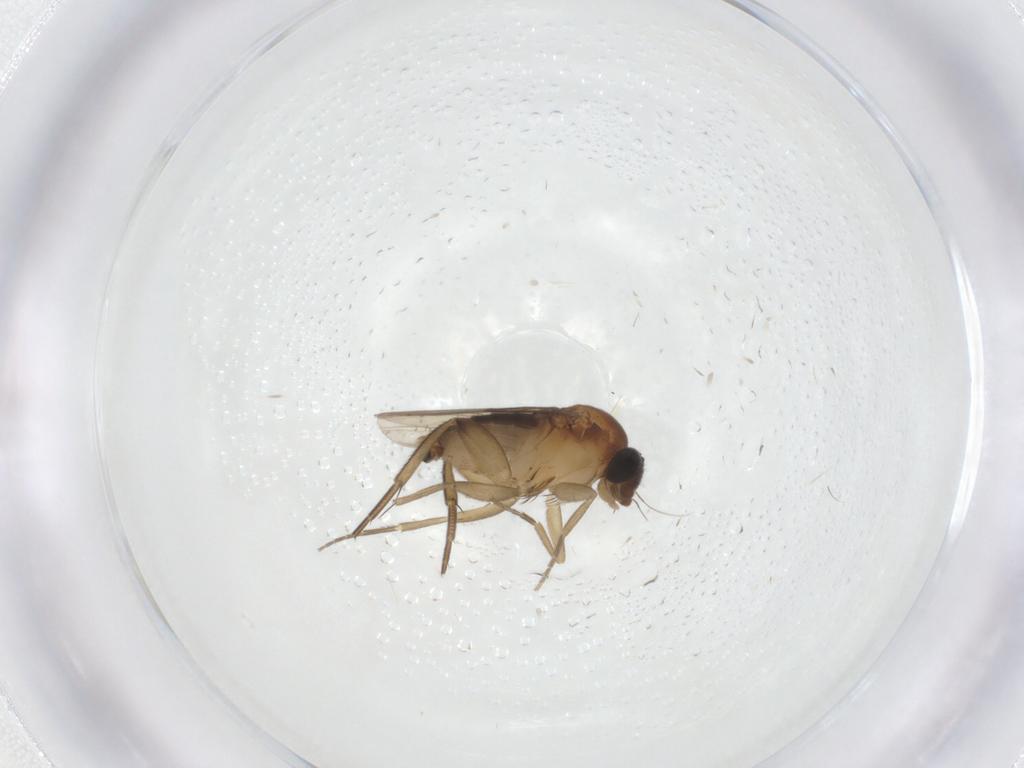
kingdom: Animalia
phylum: Arthropoda
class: Insecta
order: Diptera
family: Phoridae
